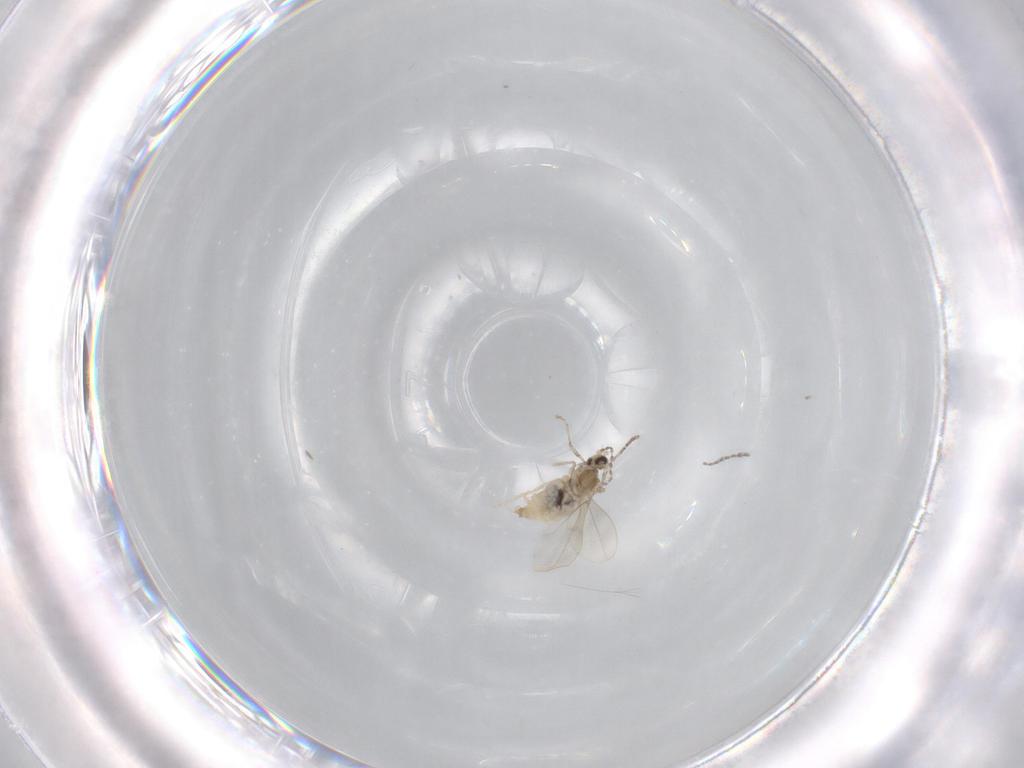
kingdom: Animalia
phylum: Arthropoda
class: Insecta
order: Diptera
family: Cecidomyiidae
